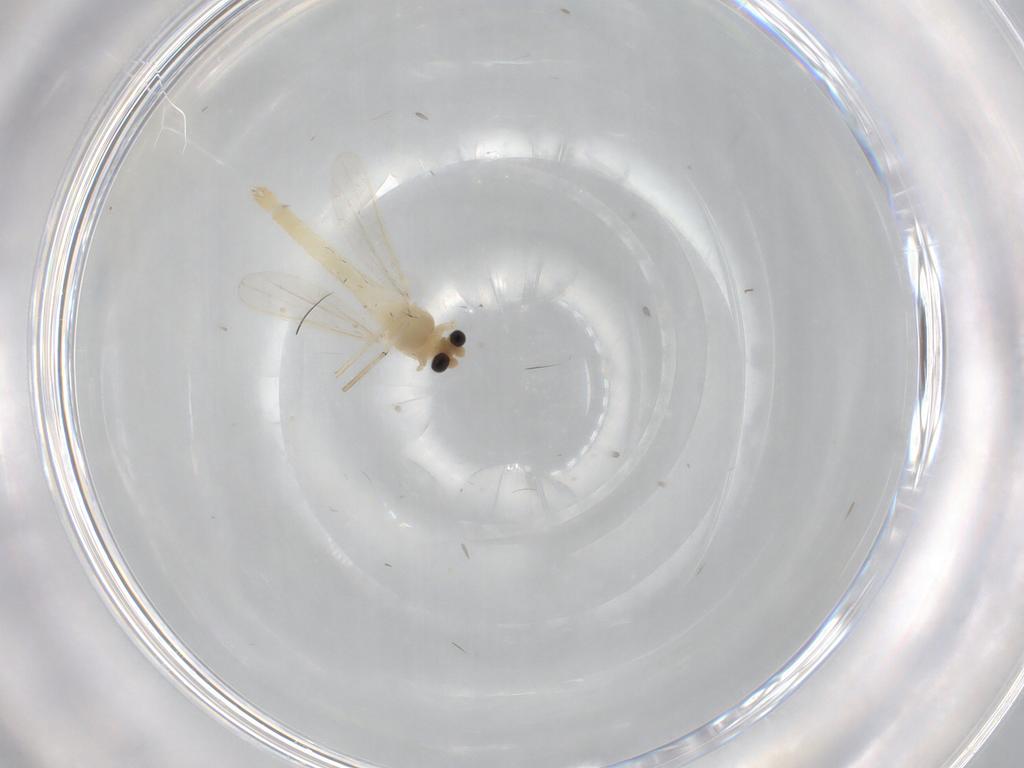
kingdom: Animalia
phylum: Arthropoda
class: Insecta
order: Diptera
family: Chironomidae
